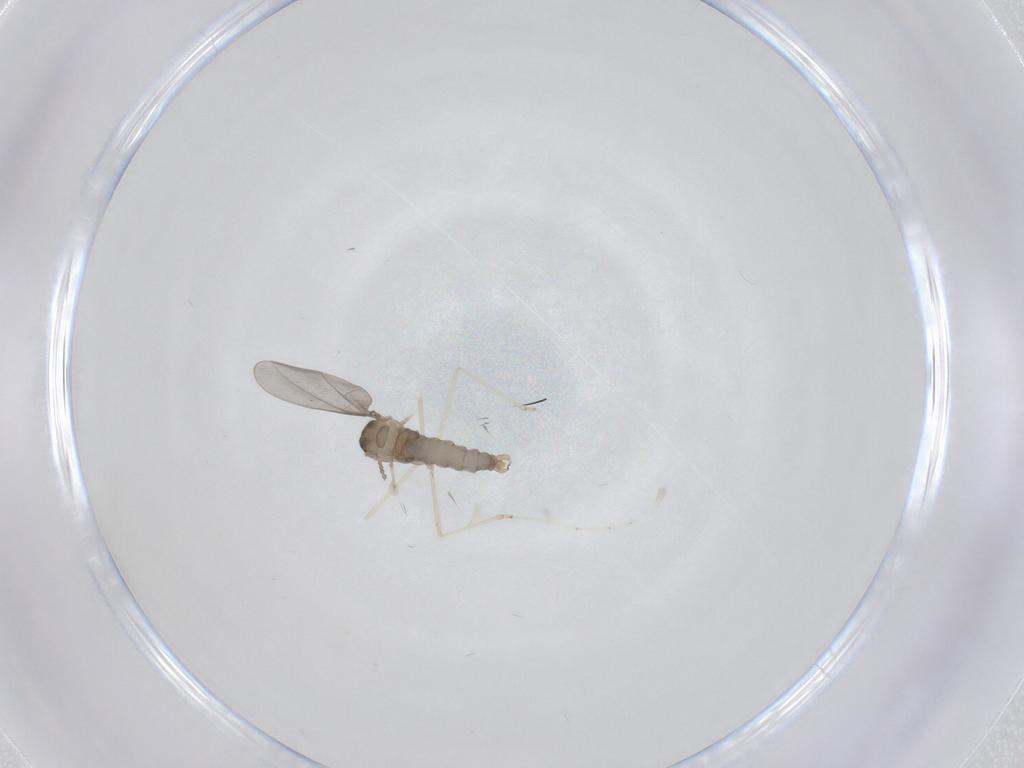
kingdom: Animalia
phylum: Arthropoda
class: Insecta
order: Diptera
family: Cecidomyiidae
